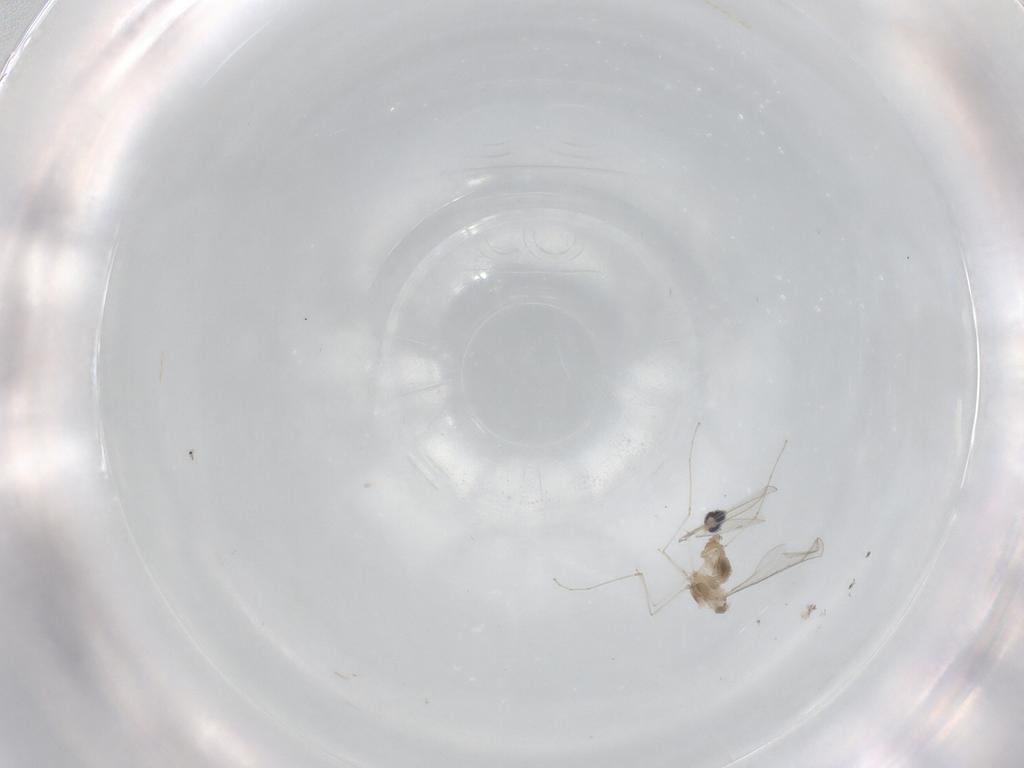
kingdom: Animalia
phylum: Arthropoda
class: Insecta
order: Diptera
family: Cecidomyiidae
